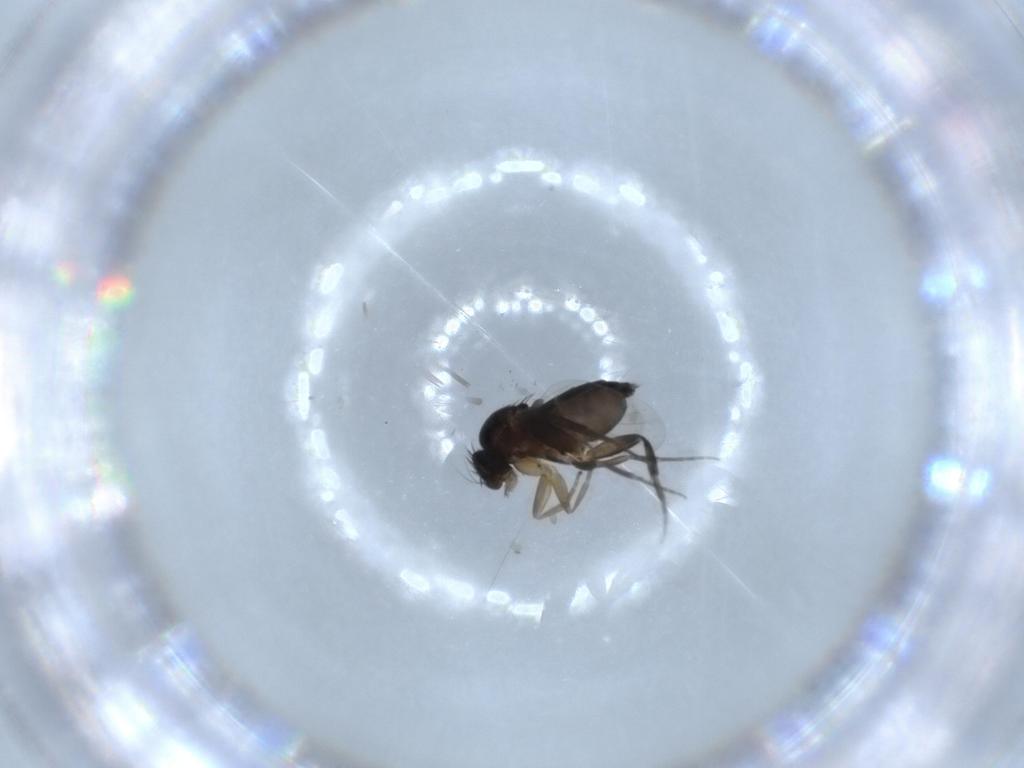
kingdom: Animalia
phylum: Arthropoda
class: Insecta
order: Diptera
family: Phoridae
